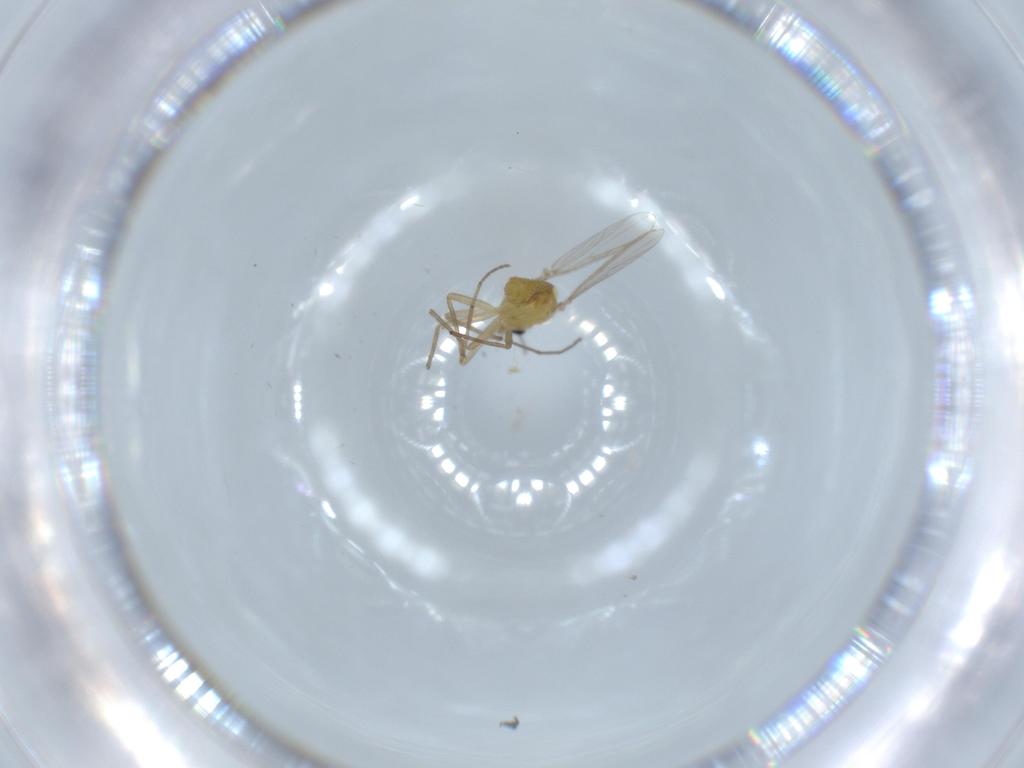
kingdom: Animalia
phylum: Arthropoda
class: Insecta
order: Diptera
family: Chironomidae
